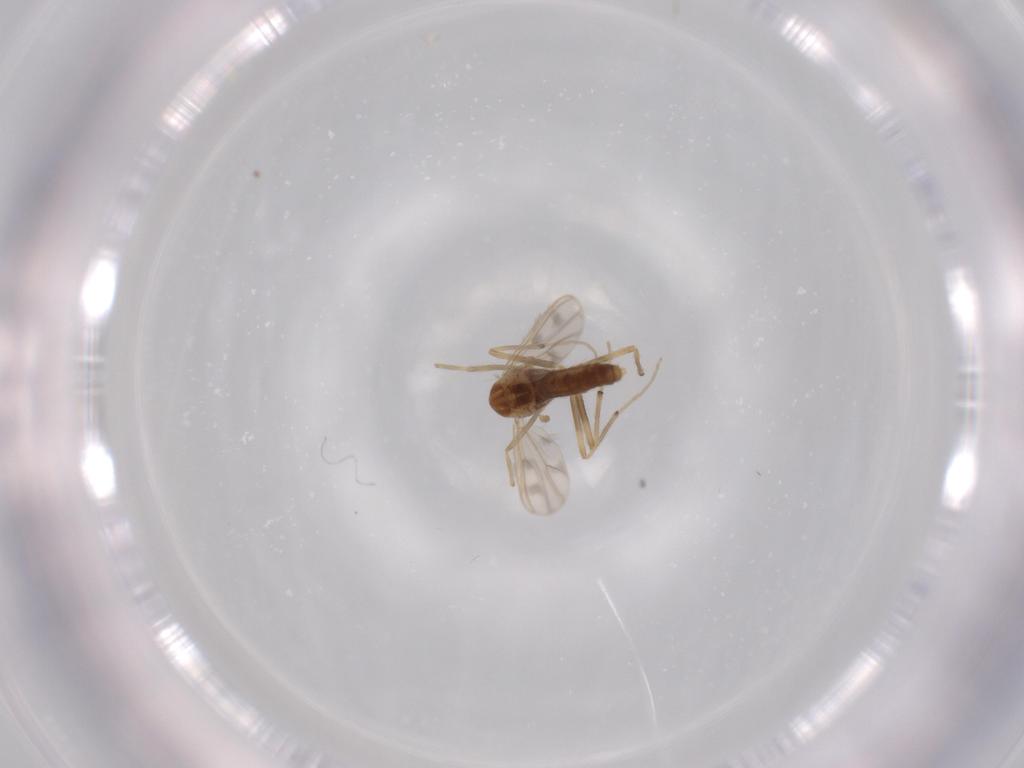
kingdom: Animalia
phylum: Arthropoda
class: Insecta
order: Diptera
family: Chironomidae
